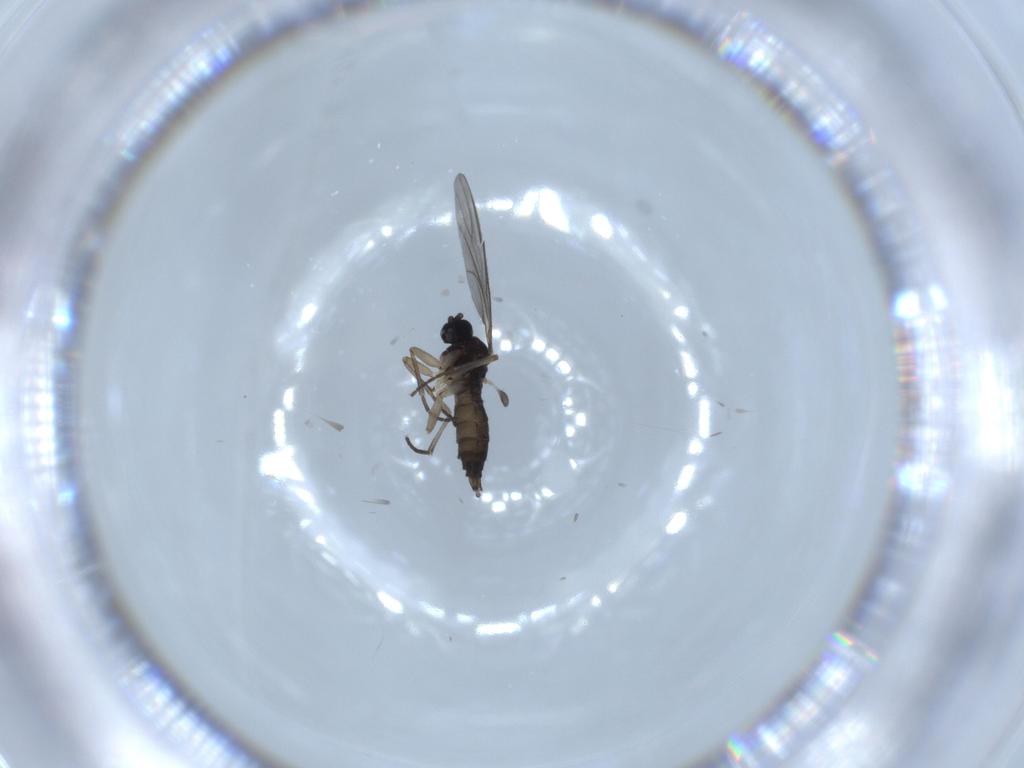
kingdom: Animalia
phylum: Arthropoda
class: Insecta
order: Diptera
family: Sciaridae
